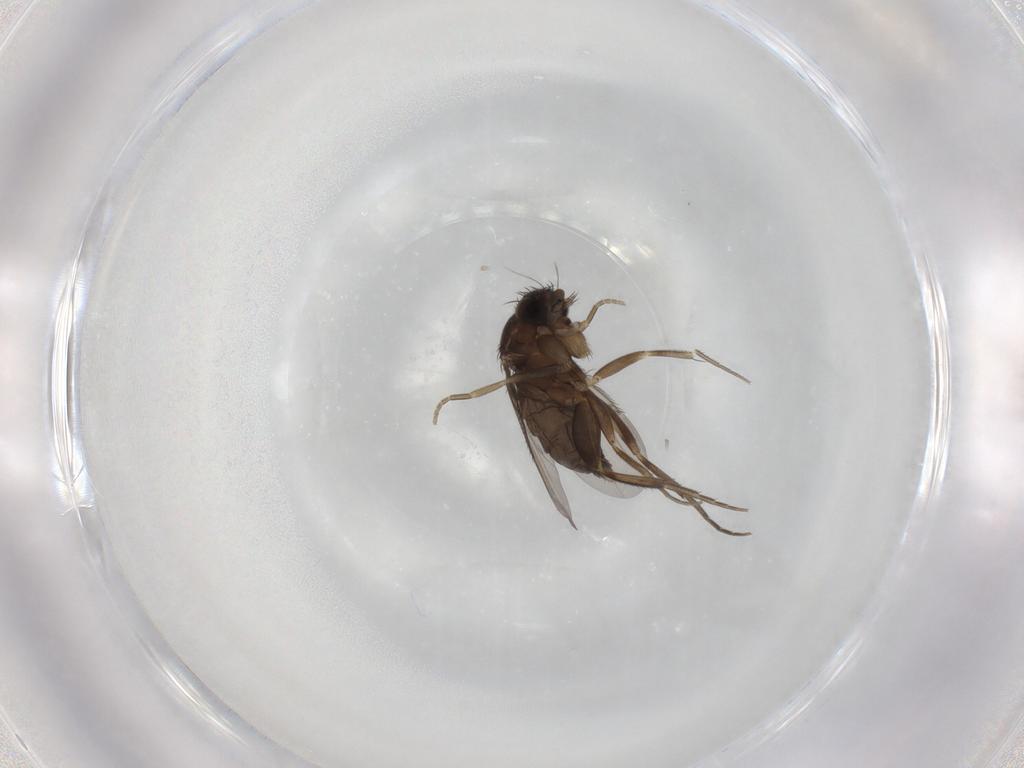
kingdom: Animalia
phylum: Arthropoda
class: Insecta
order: Diptera
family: Phoridae
